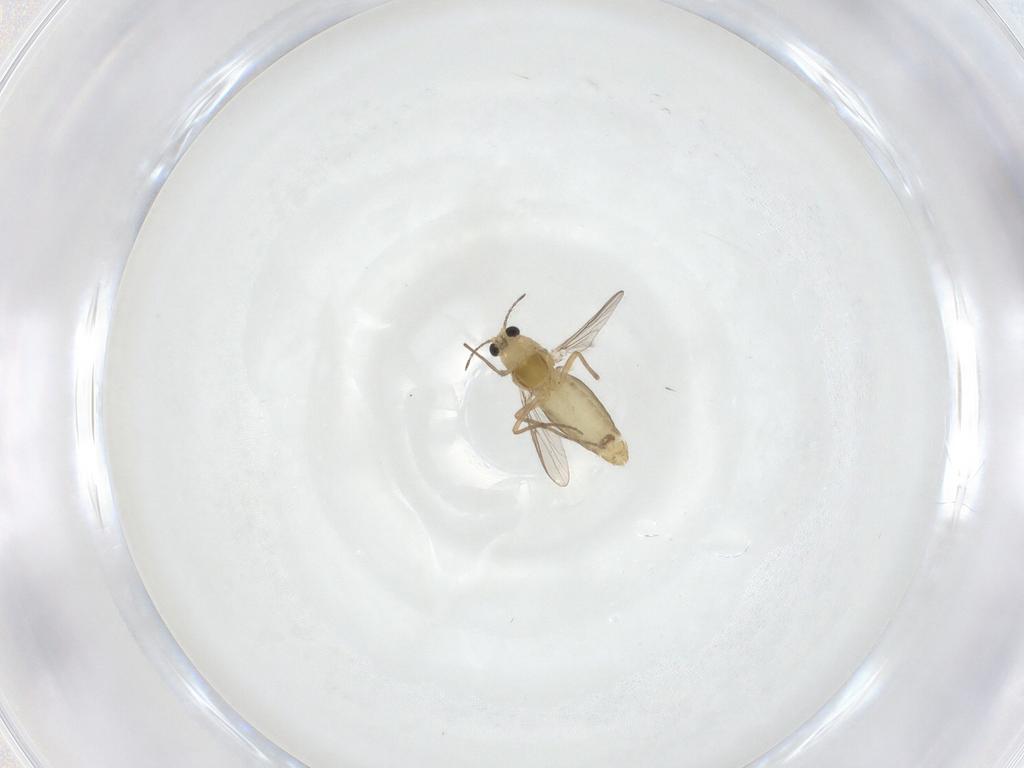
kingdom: Animalia
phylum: Arthropoda
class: Insecta
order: Diptera
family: Chironomidae
